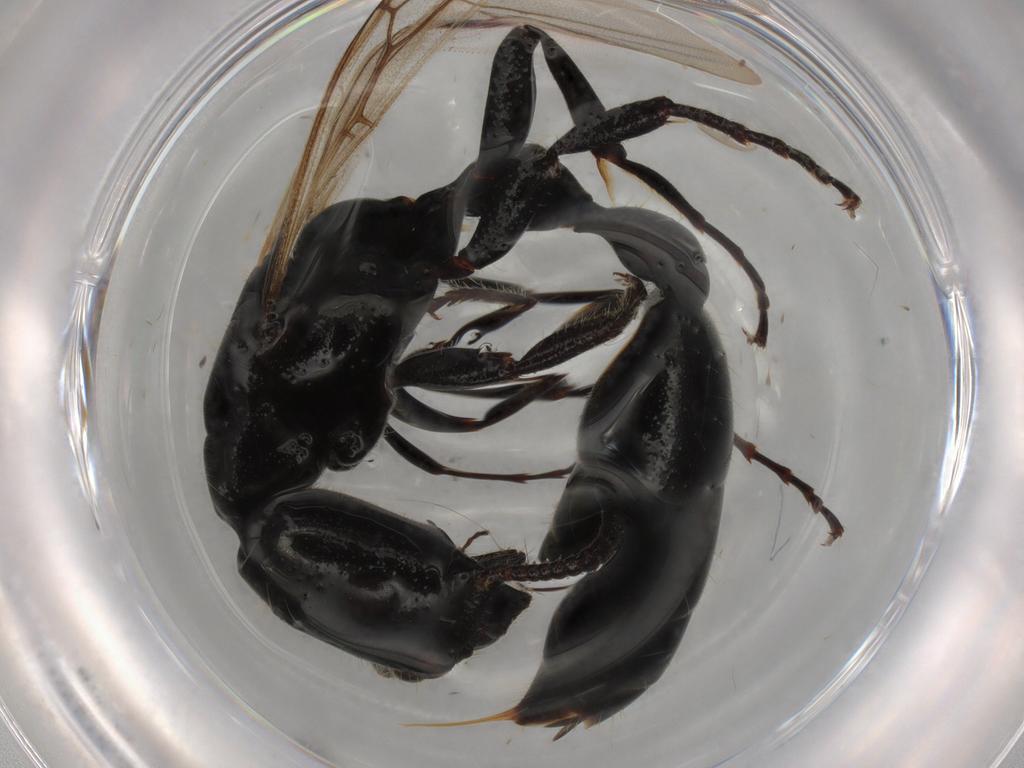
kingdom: Animalia
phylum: Arthropoda
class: Insecta
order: Hymenoptera
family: Formicidae
